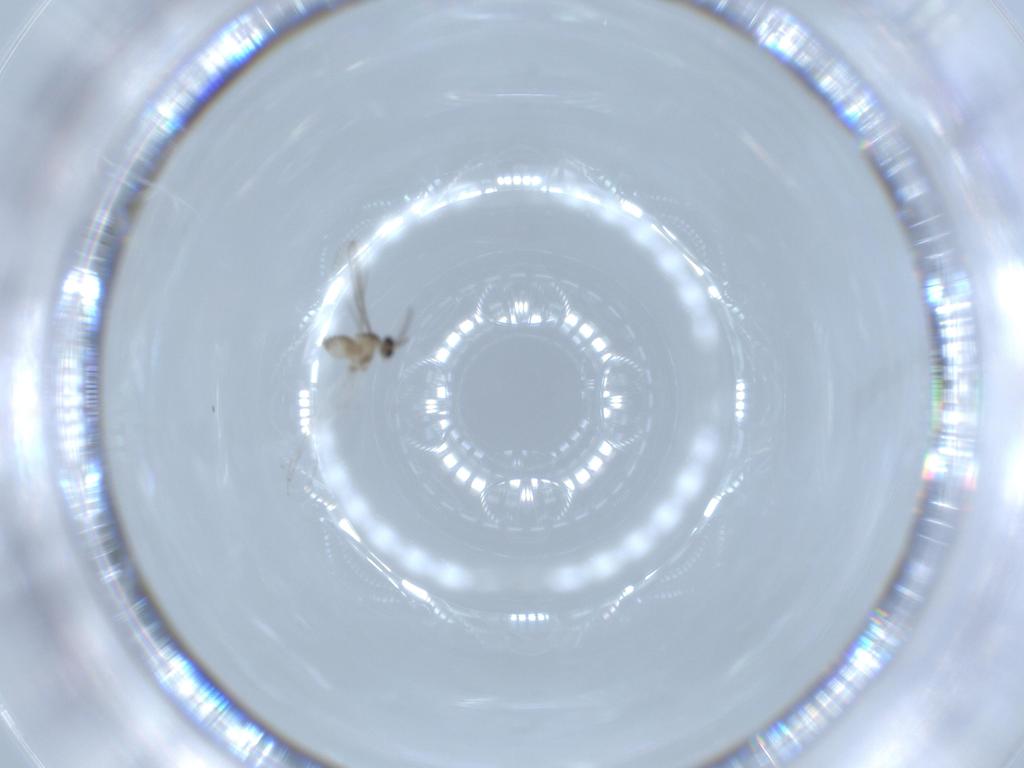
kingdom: Animalia
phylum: Arthropoda
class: Insecta
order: Diptera
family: Cecidomyiidae
